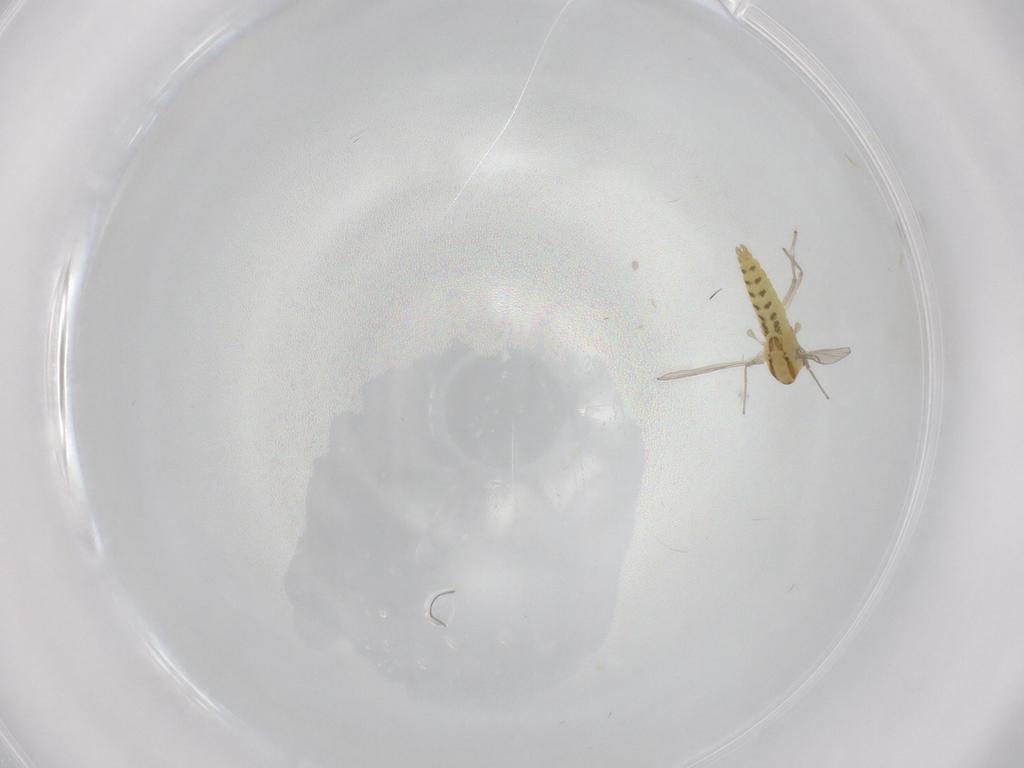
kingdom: Animalia
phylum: Arthropoda
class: Insecta
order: Diptera
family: Chironomidae
